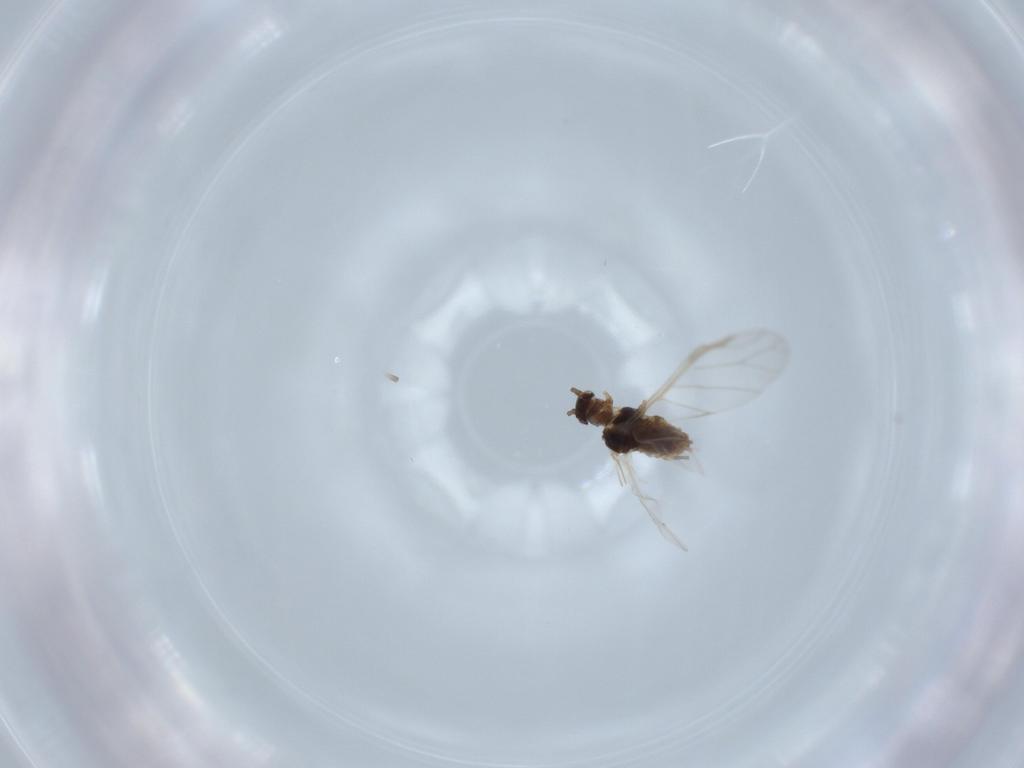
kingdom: Animalia
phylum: Arthropoda
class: Insecta
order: Hemiptera
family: Aphididae
